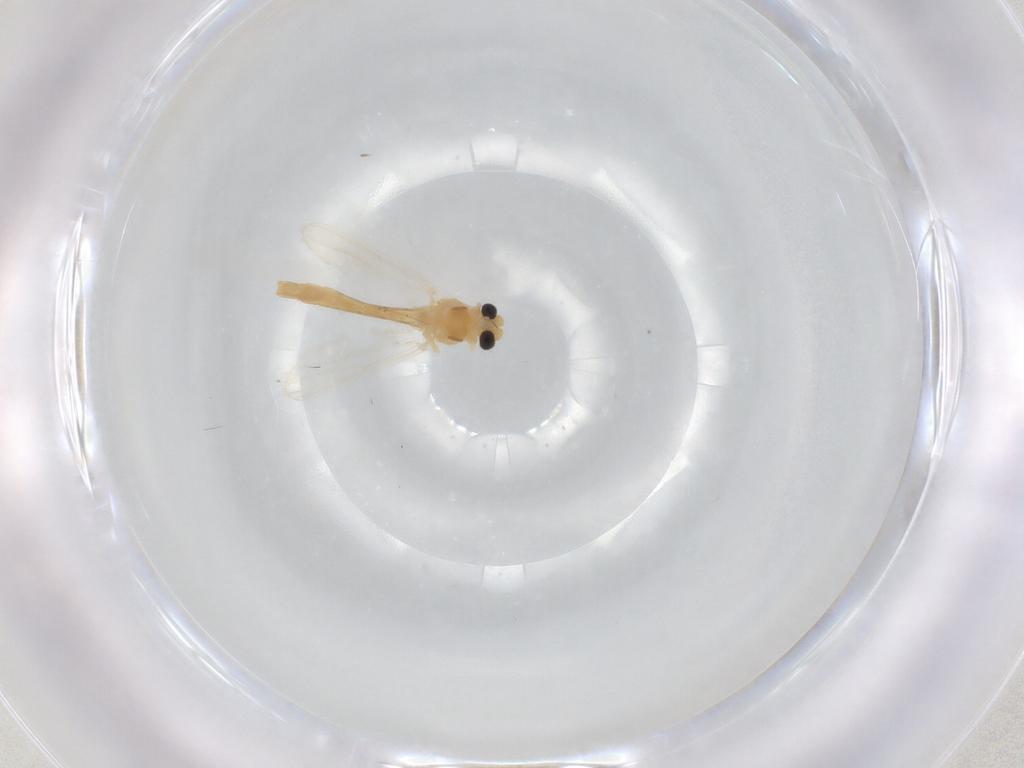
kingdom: Animalia
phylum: Arthropoda
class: Insecta
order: Diptera
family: Chironomidae
